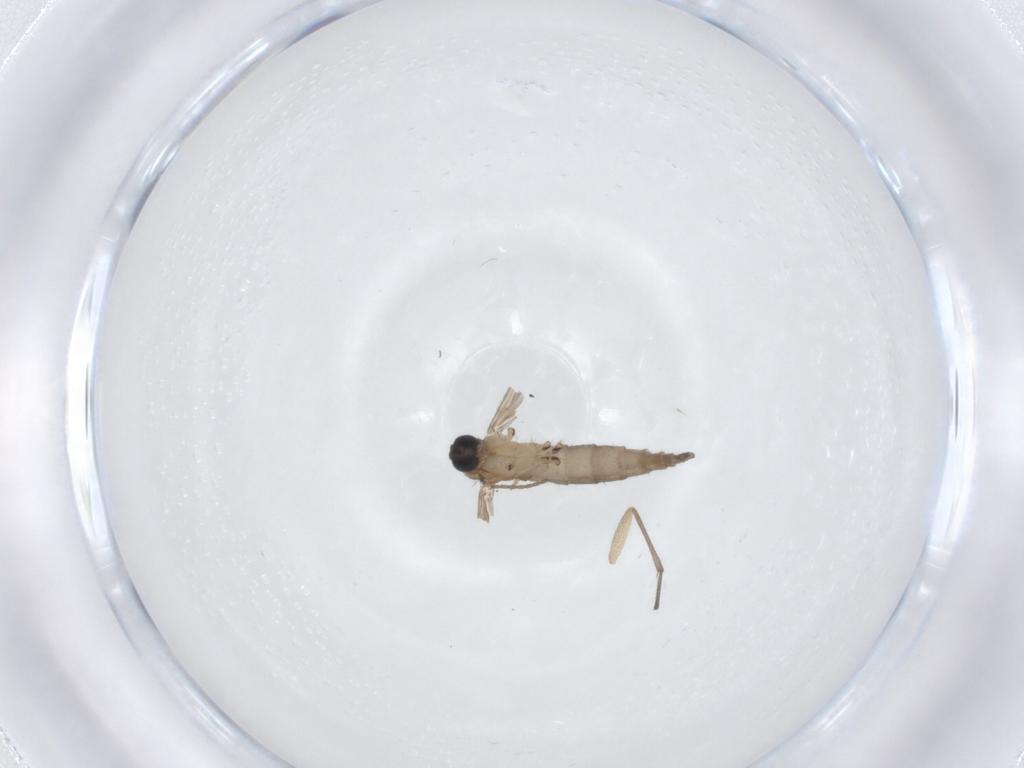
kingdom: Animalia
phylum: Arthropoda
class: Insecta
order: Diptera
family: Sciaridae
